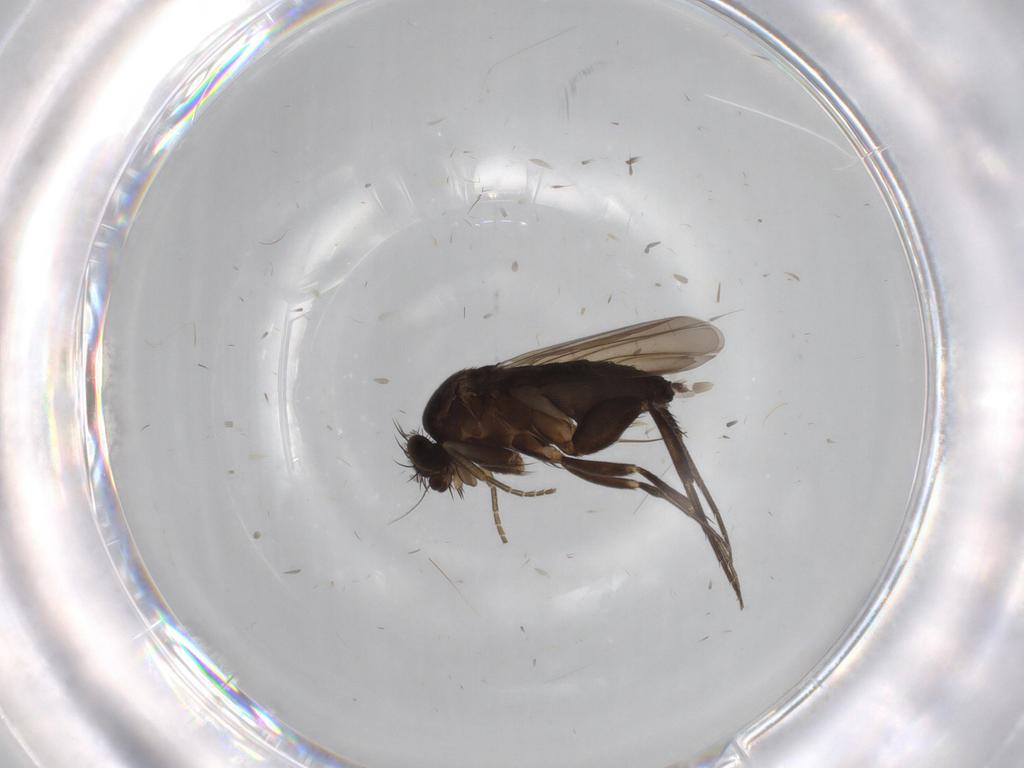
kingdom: Animalia
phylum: Arthropoda
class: Insecta
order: Diptera
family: Phoridae
